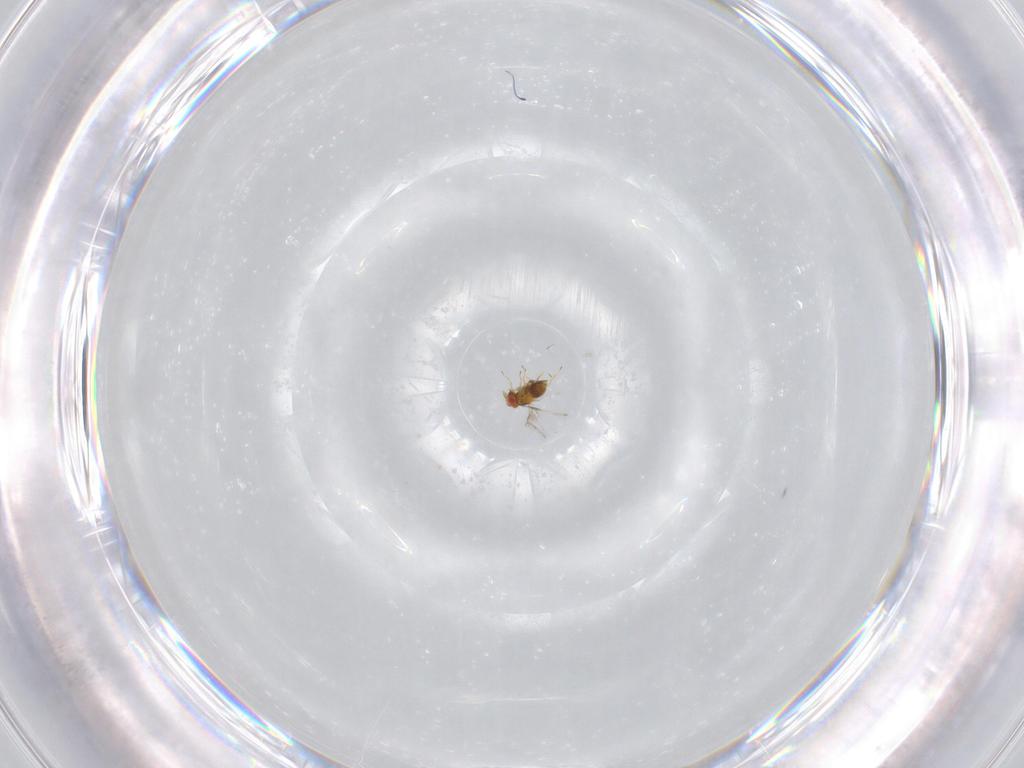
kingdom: Animalia
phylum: Arthropoda
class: Insecta
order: Hymenoptera
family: Trichogrammatidae
